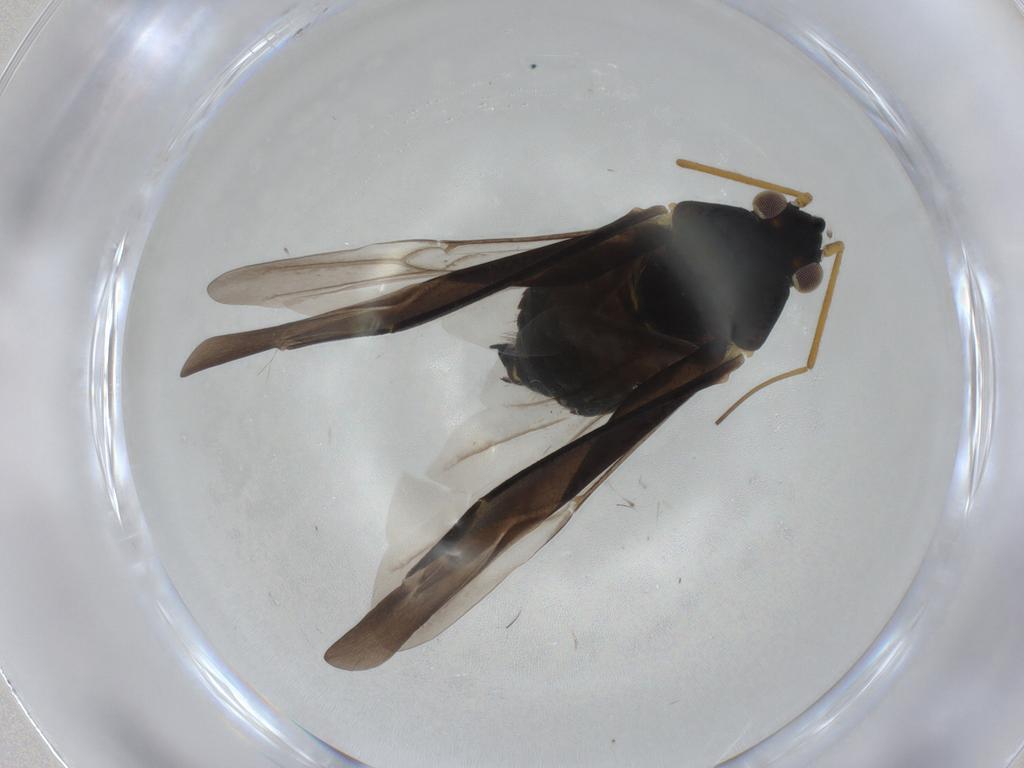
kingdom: Animalia
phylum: Arthropoda
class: Insecta
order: Hemiptera
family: Miridae
